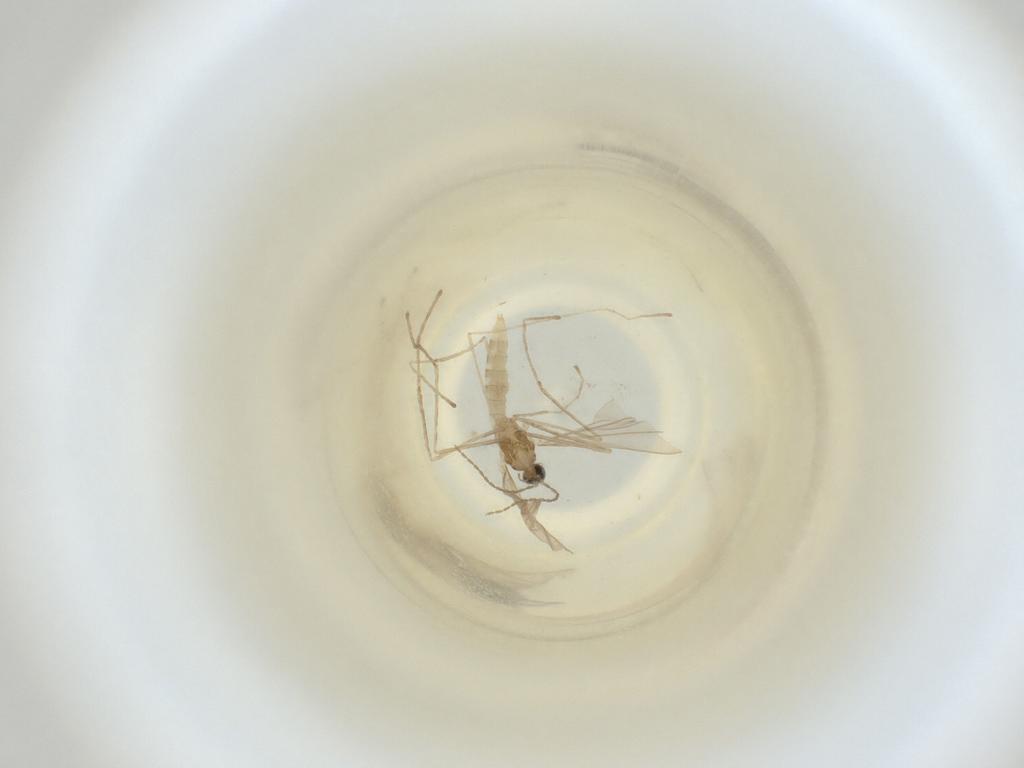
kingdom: Animalia
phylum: Arthropoda
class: Insecta
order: Diptera
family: Cecidomyiidae
